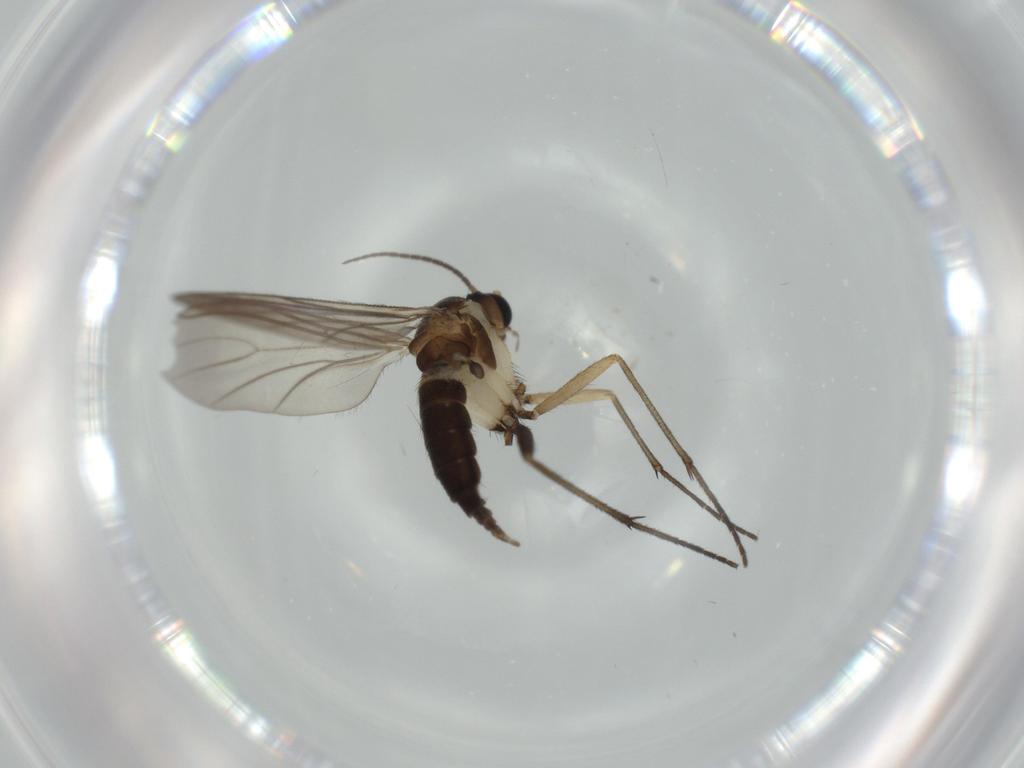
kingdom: Animalia
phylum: Arthropoda
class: Insecta
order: Diptera
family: Sciaridae
